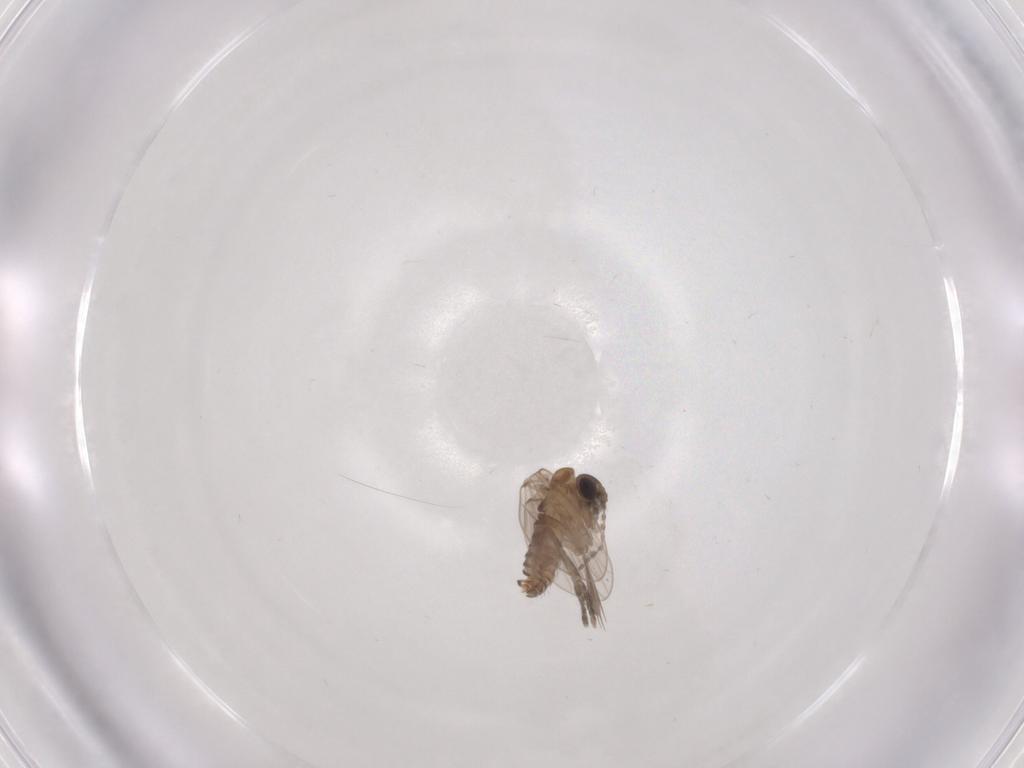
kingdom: Animalia
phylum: Arthropoda
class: Insecta
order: Diptera
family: Psychodidae
